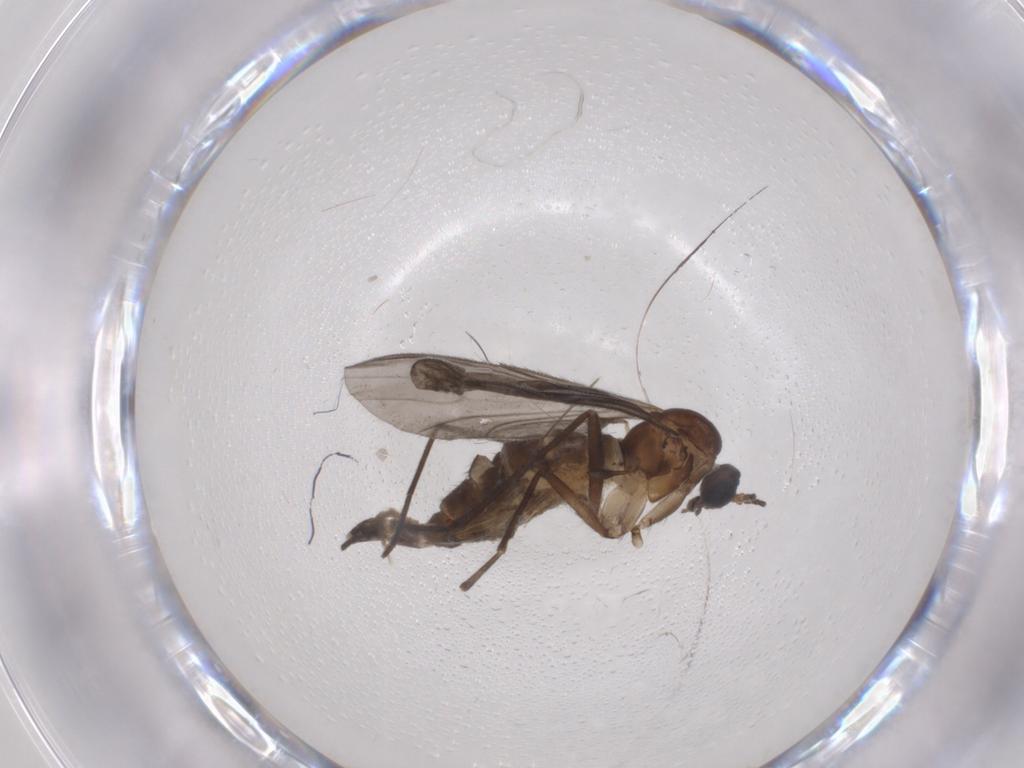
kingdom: Animalia
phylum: Arthropoda
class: Insecta
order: Diptera
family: Sciaridae
